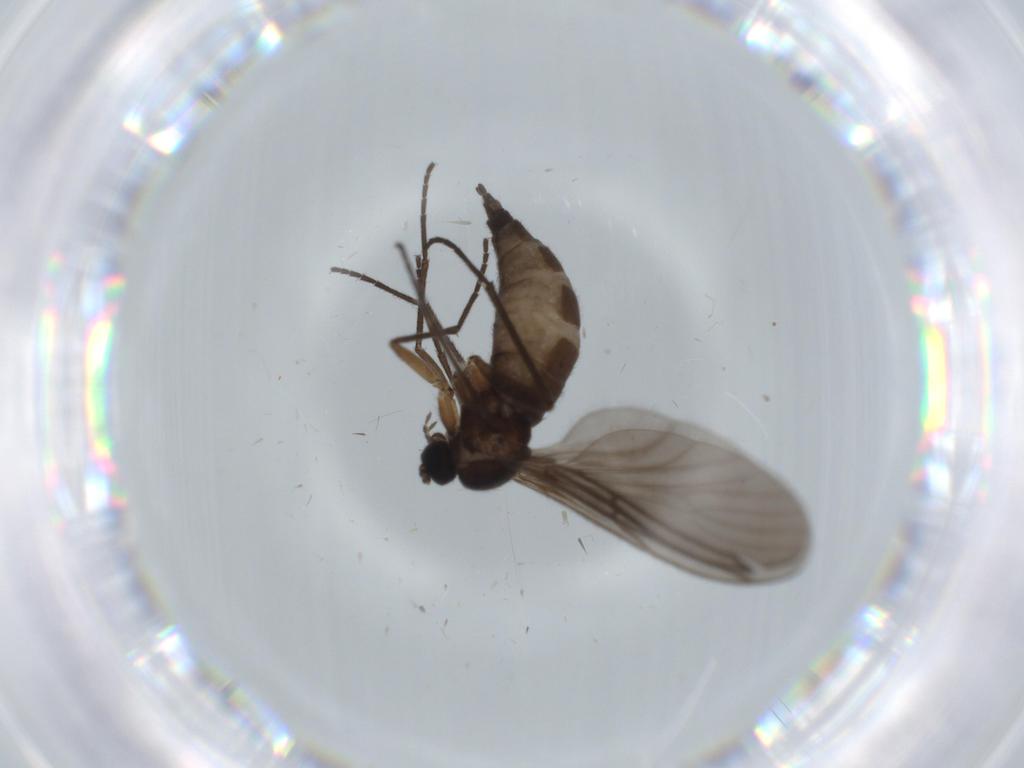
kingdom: Animalia
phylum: Arthropoda
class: Insecta
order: Diptera
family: Sciaridae
